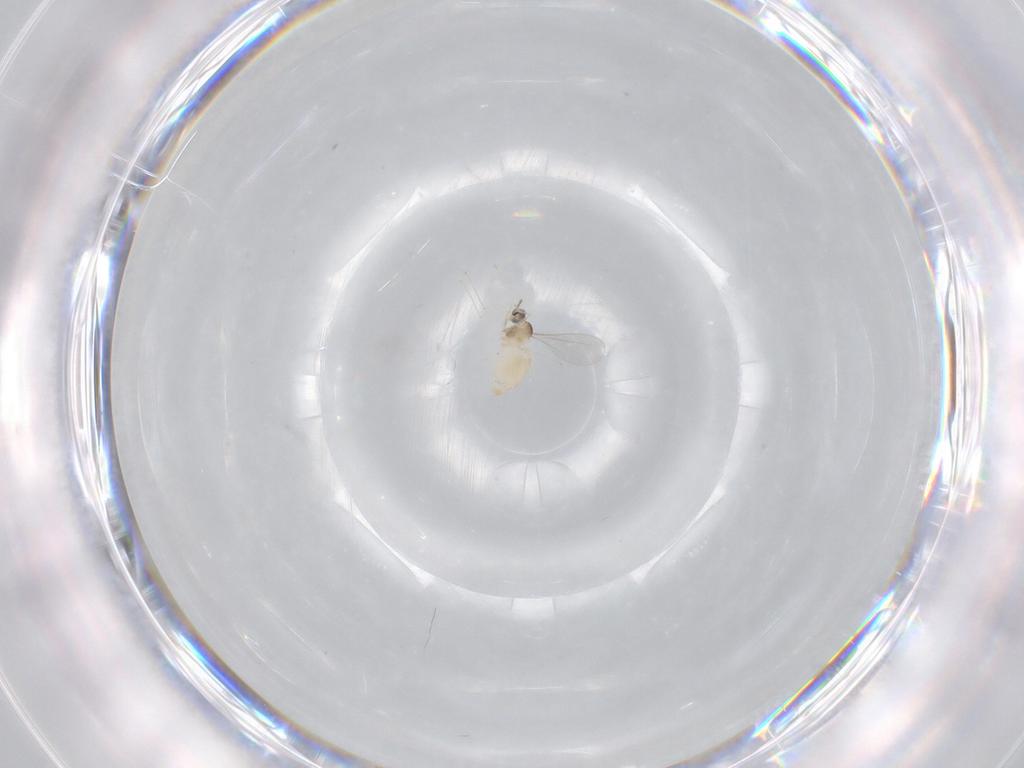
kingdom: Animalia
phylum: Arthropoda
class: Insecta
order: Diptera
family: Cecidomyiidae
